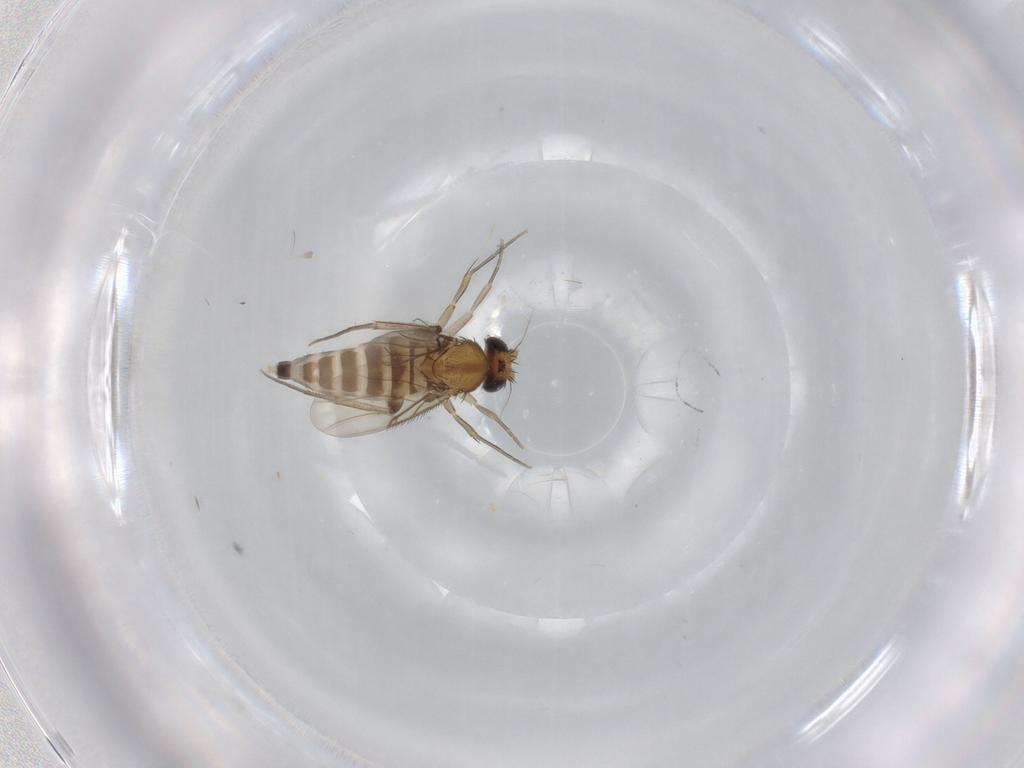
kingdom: Animalia
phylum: Arthropoda
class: Insecta
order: Diptera
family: Phoridae
